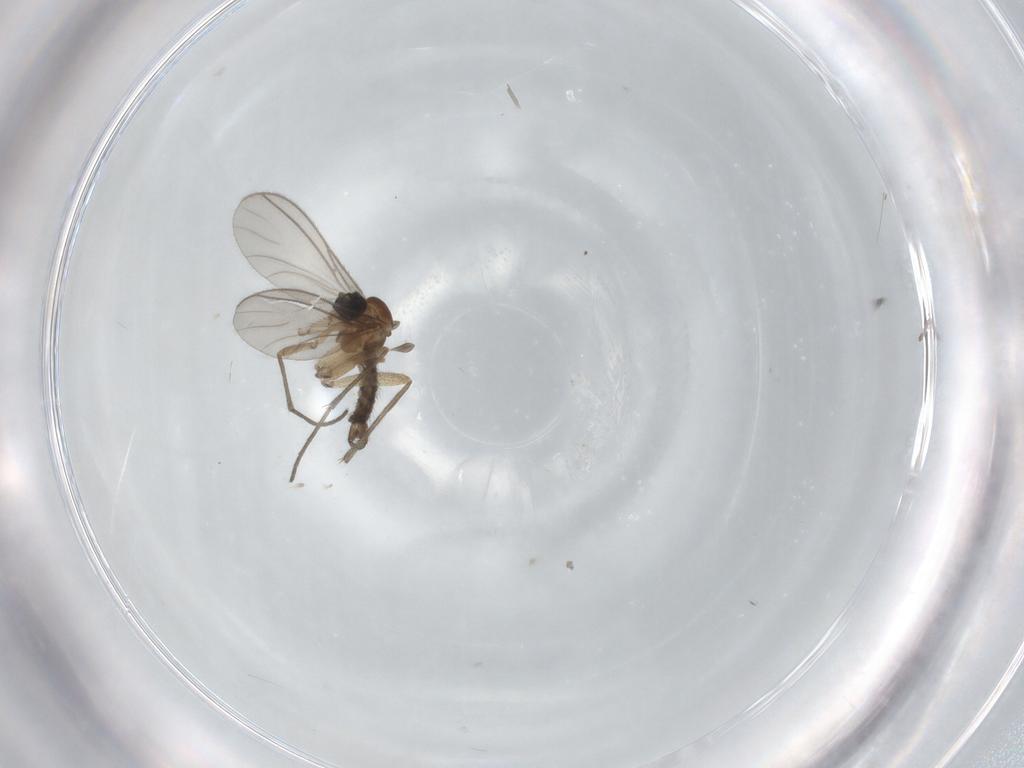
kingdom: Animalia
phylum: Arthropoda
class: Insecta
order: Diptera
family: Sciaridae
